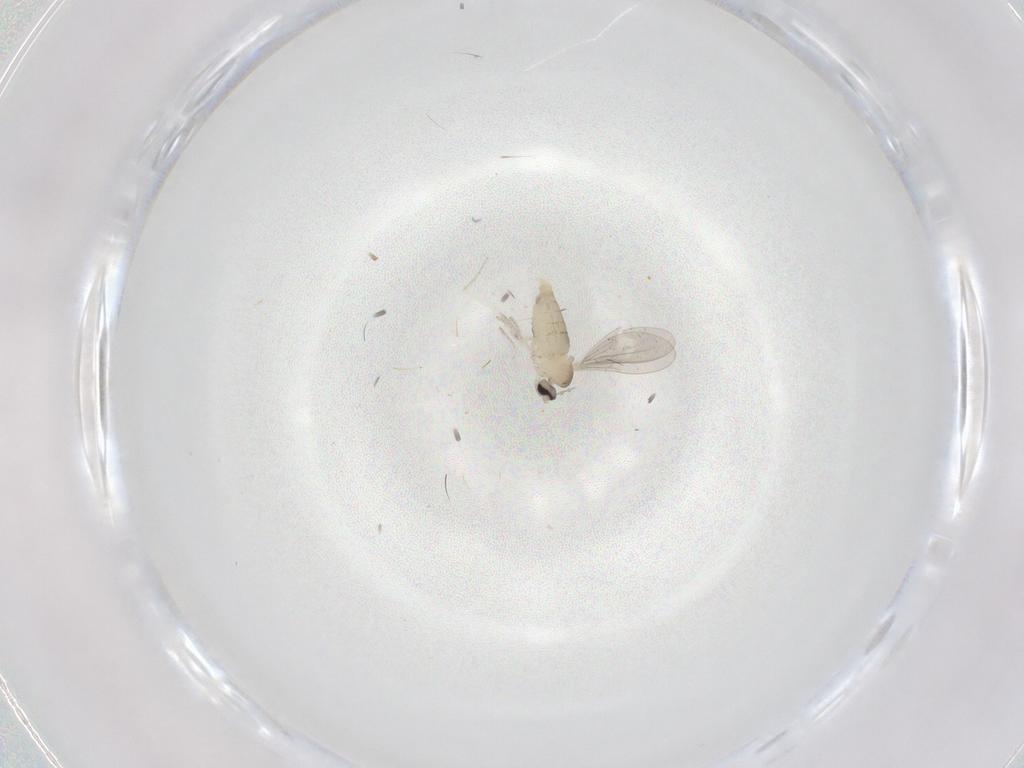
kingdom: Animalia
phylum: Arthropoda
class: Insecta
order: Diptera
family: Cecidomyiidae
